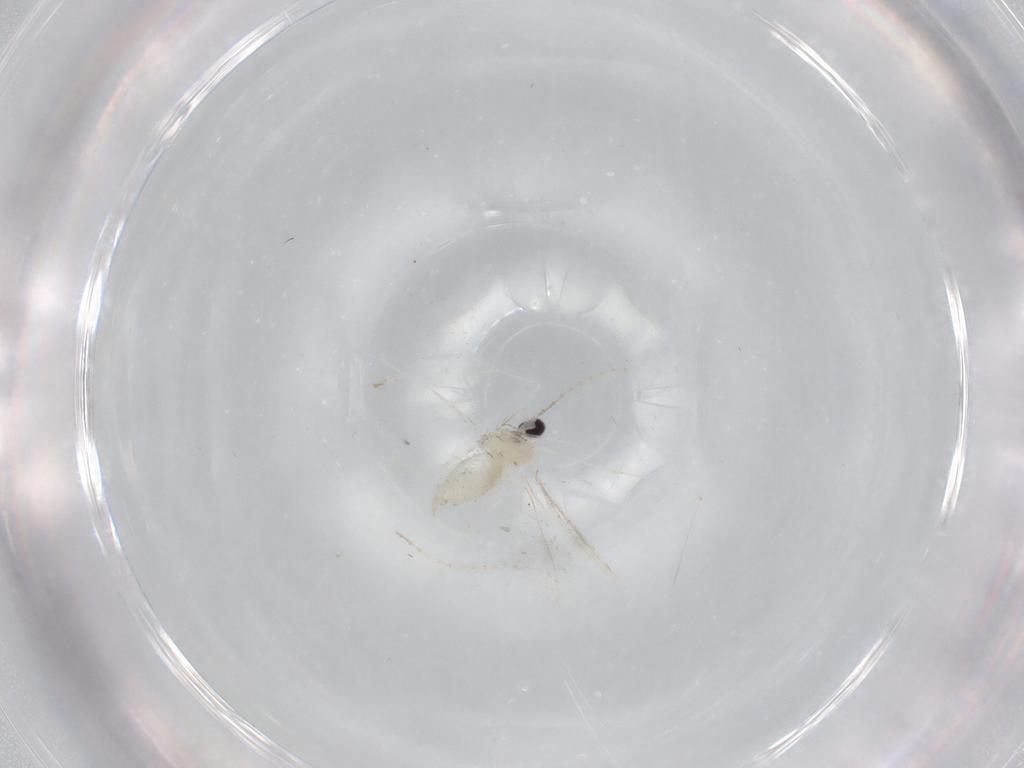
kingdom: Animalia
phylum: Arthropoda
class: Insecta
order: Diptera
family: Cecidomyiidae
